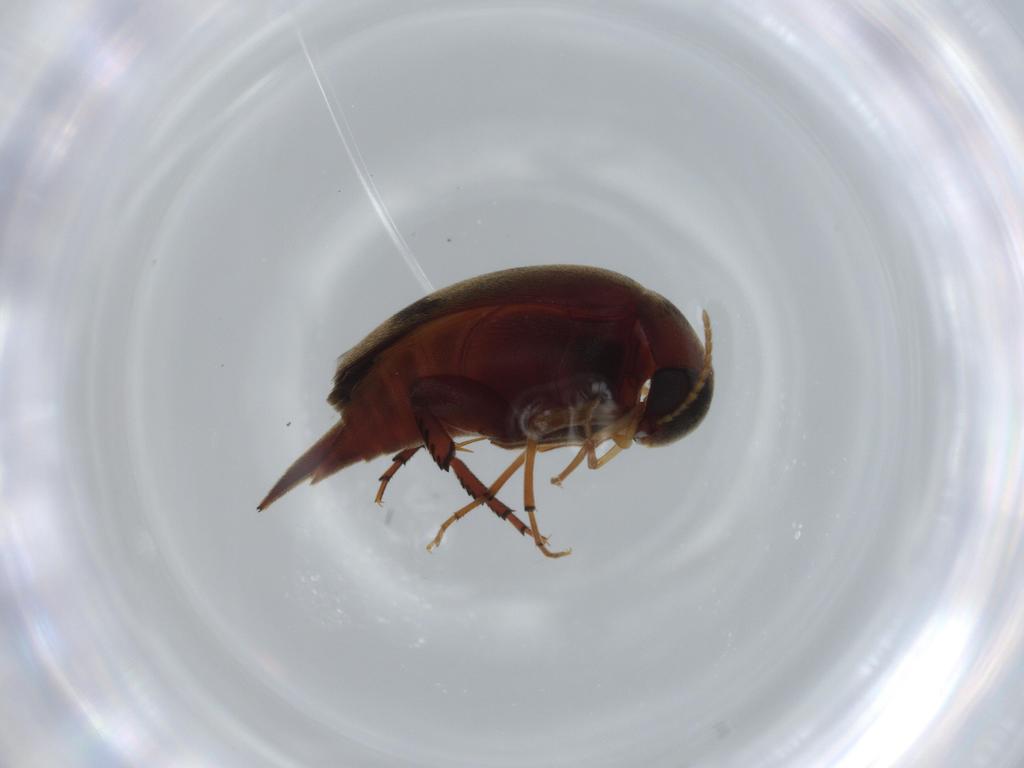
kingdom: Animalia
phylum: Arthropoda
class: Insecta
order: Coleoptera
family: Mordellidae
